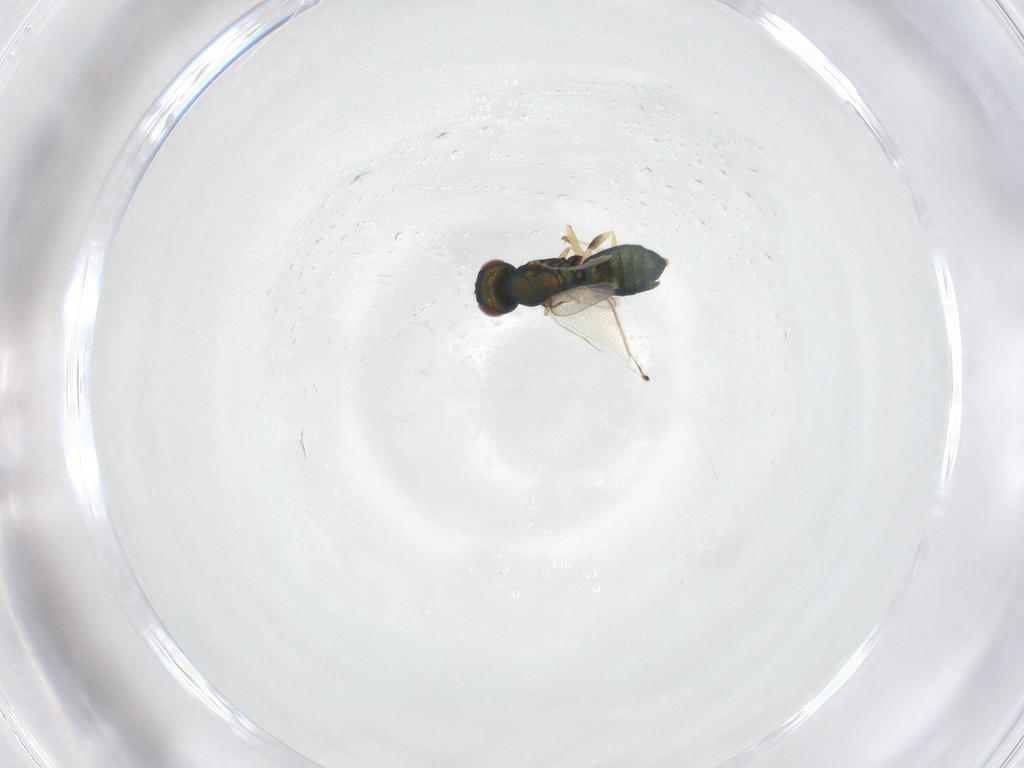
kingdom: Animalia
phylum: Arthropoda
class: Insecta
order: Hymenoptera
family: Eulophidae
